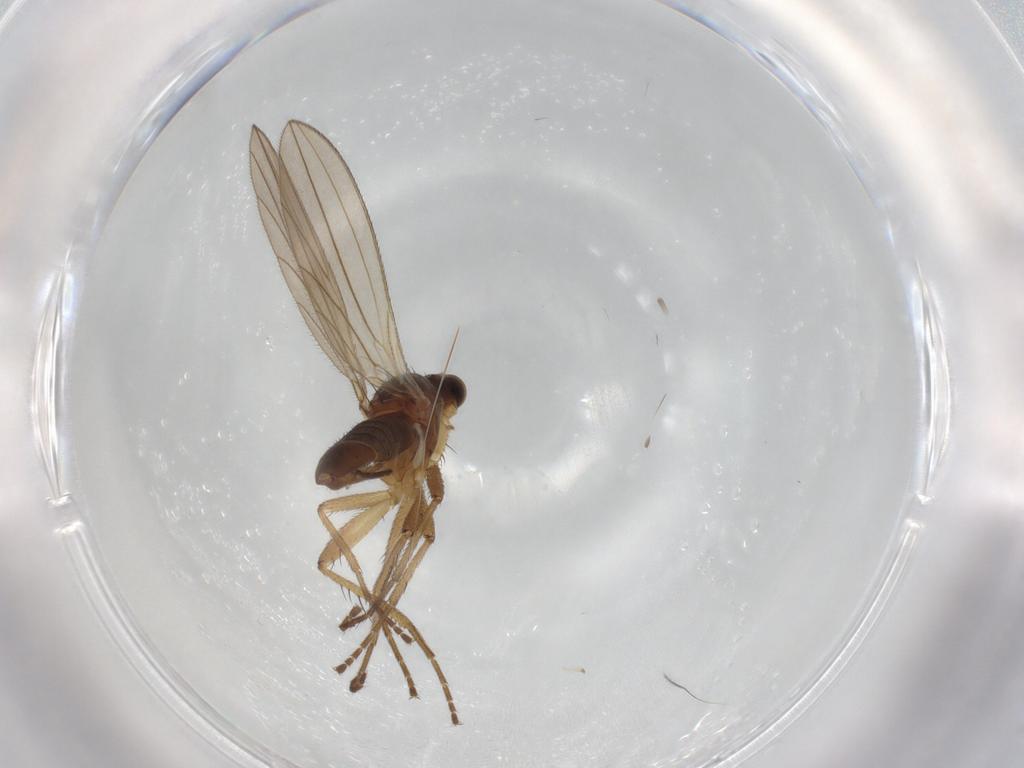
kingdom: Animalia
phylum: Arthropoda
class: Insecta
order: Diptera
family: Lonchopteridae
